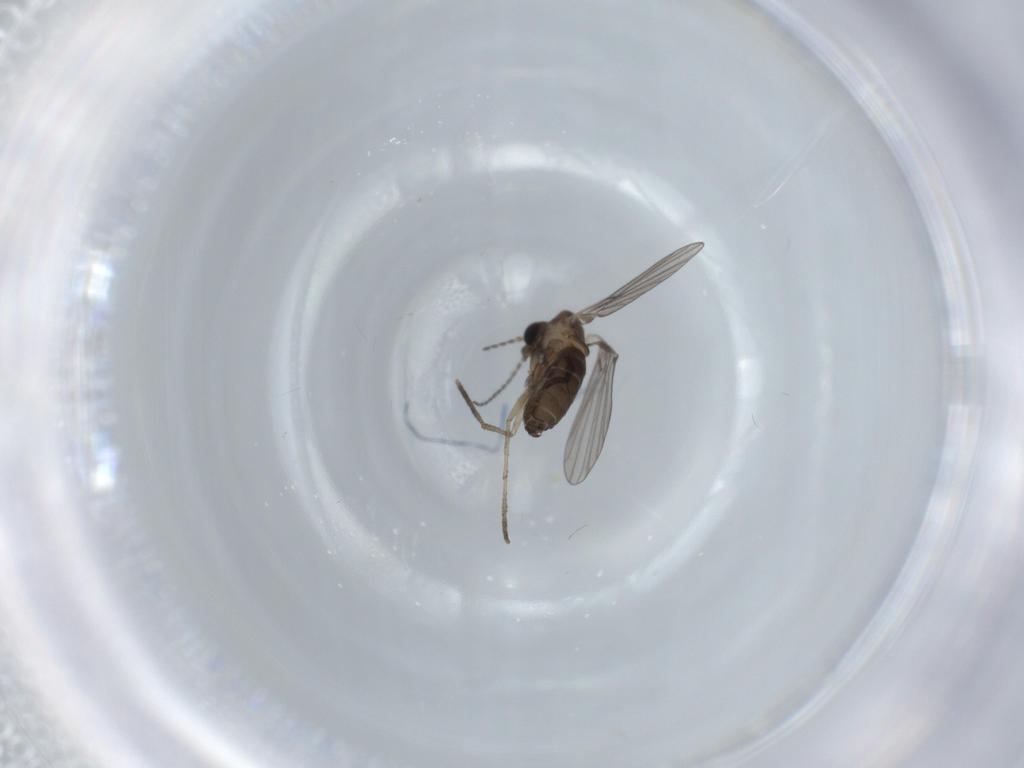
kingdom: Animalia
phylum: Arthropoda
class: Insecta
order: Diptera
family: Psychodidae
